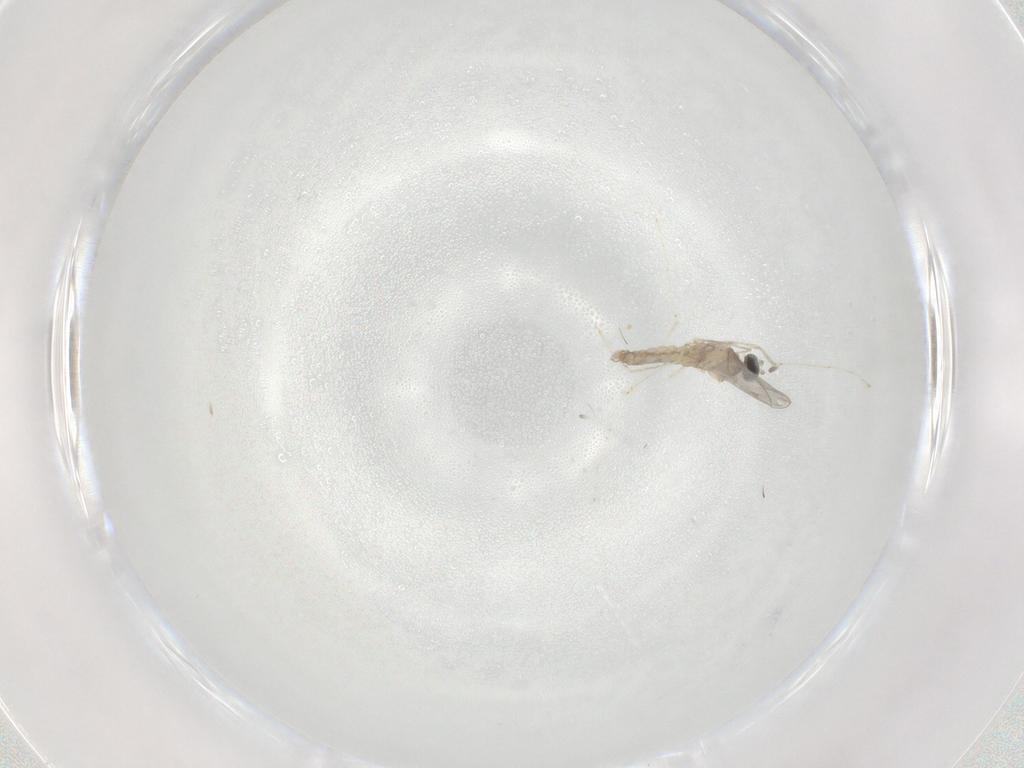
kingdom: Animalia
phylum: Arthropoda
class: Insecta
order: Diptera
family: Cecidomyiidae
